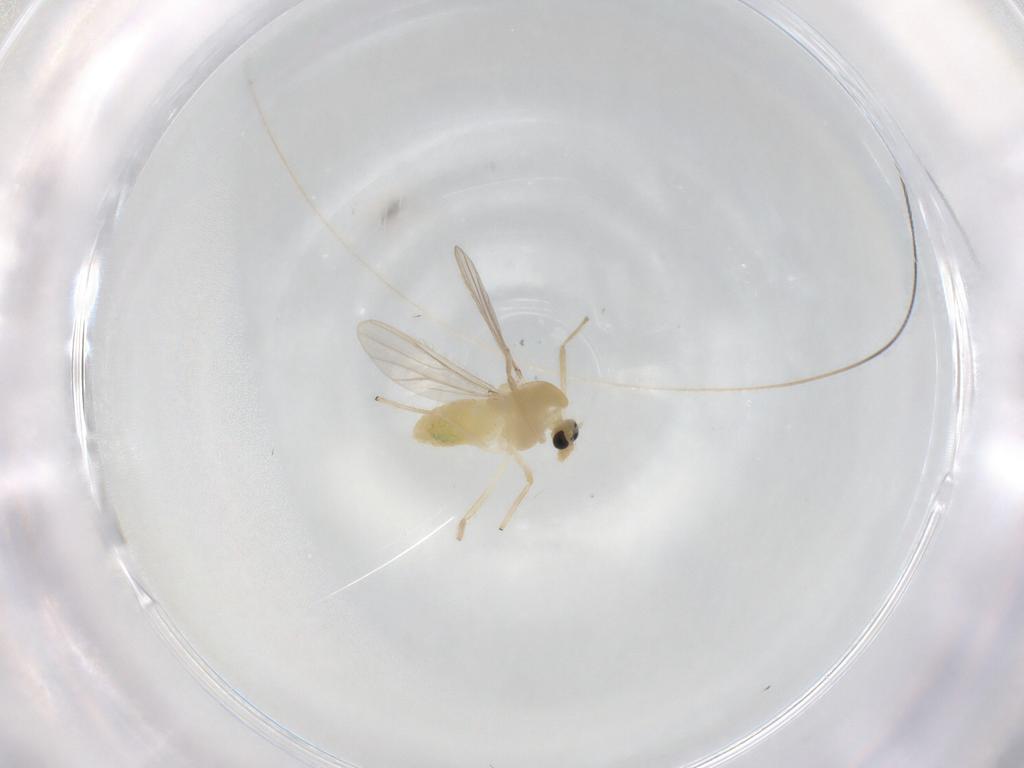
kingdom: Animalia
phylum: Arthropoda
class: Insecta
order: Diptera
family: Chironomidae
